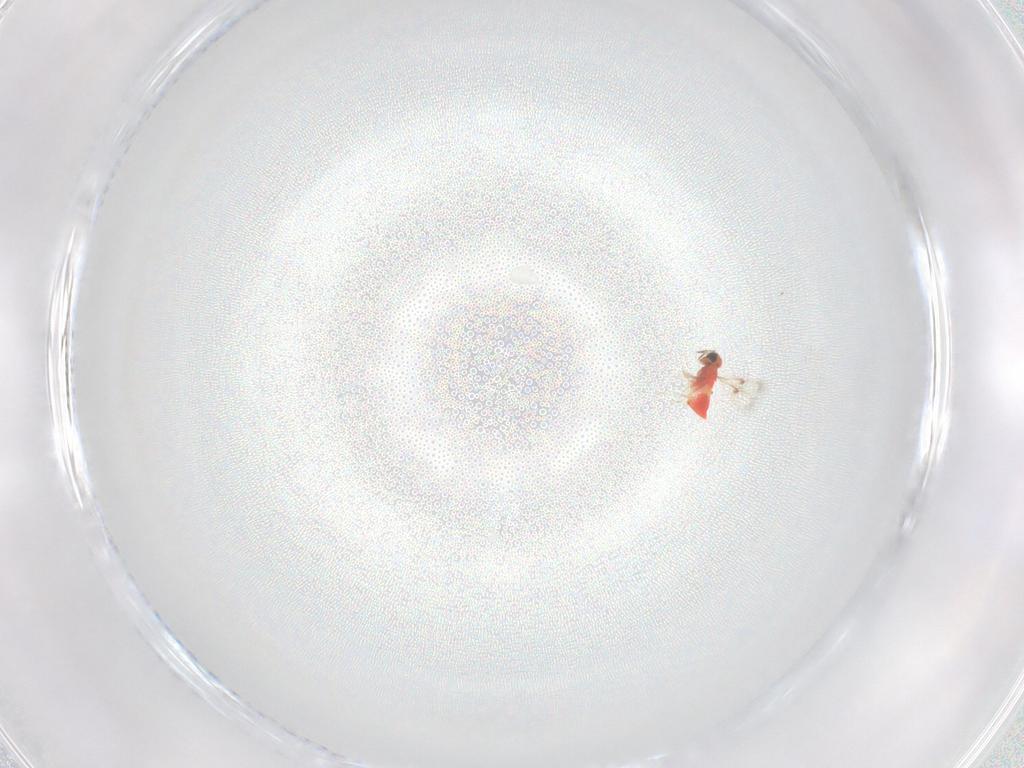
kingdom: Animalia
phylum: Arthropoda
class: Insecta
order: Hymenoptera
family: Trichogrammatidae
